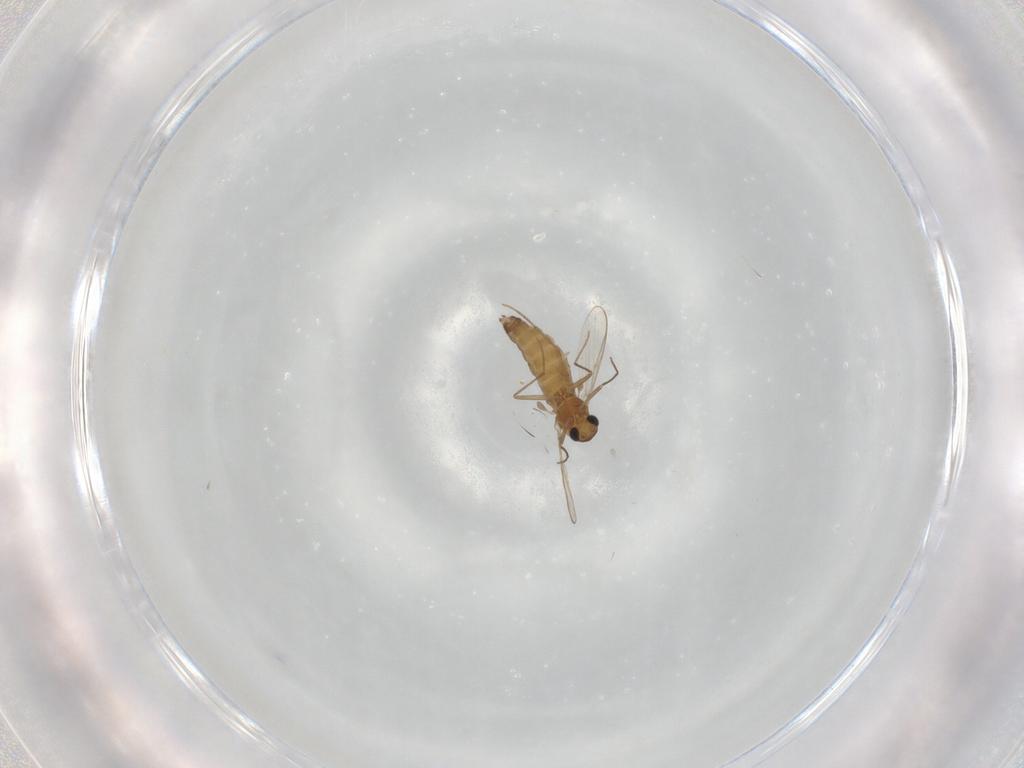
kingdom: Animalia
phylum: Arthropoda
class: Insecta
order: Diptera
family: Chironomidae
